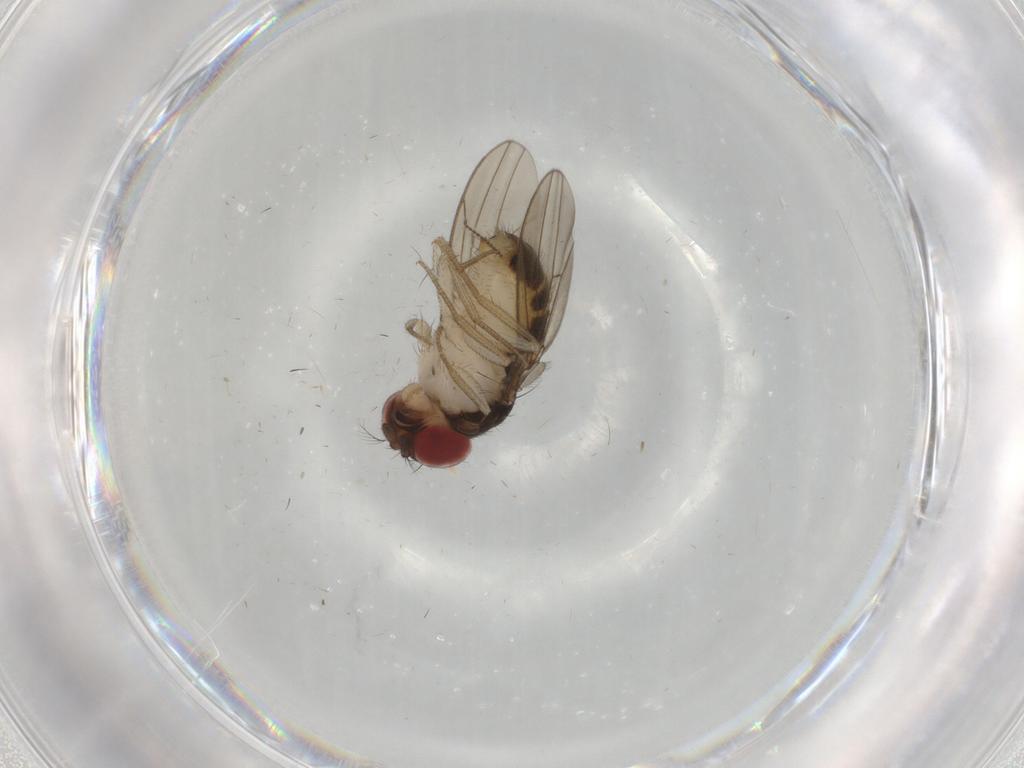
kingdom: Animalia
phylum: Arthropoda
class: Insecta
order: Diptera
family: Drosophilidae
